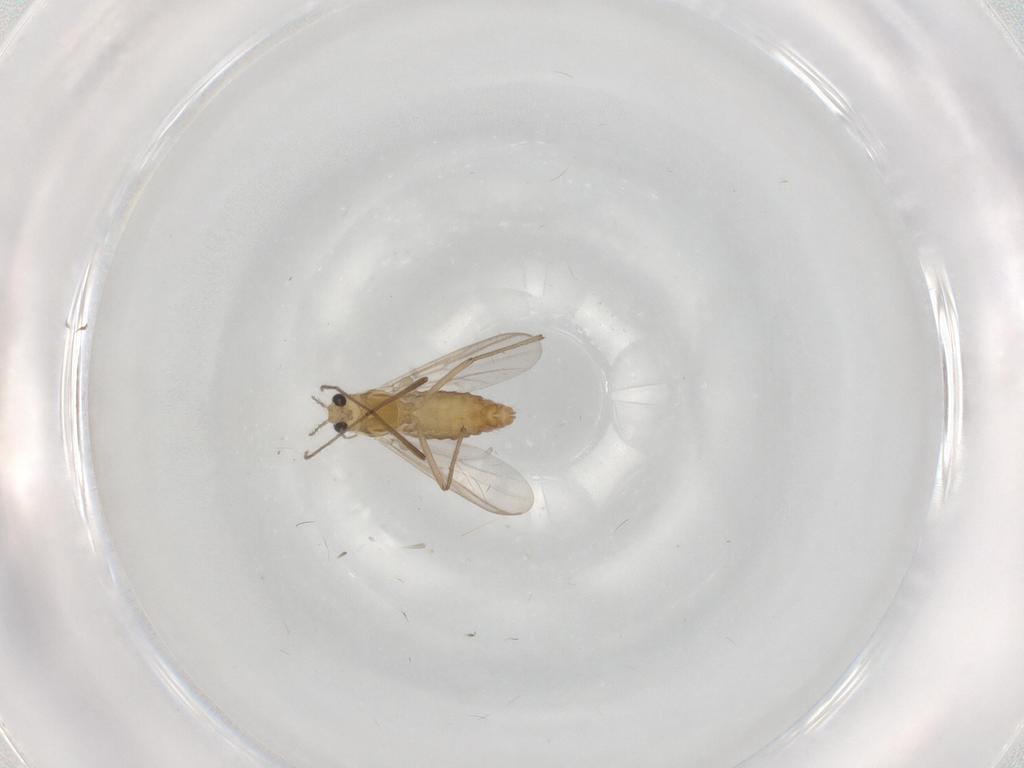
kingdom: Animalia
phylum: Arthropoda
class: Insecta
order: Diptera
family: Chironomidae
